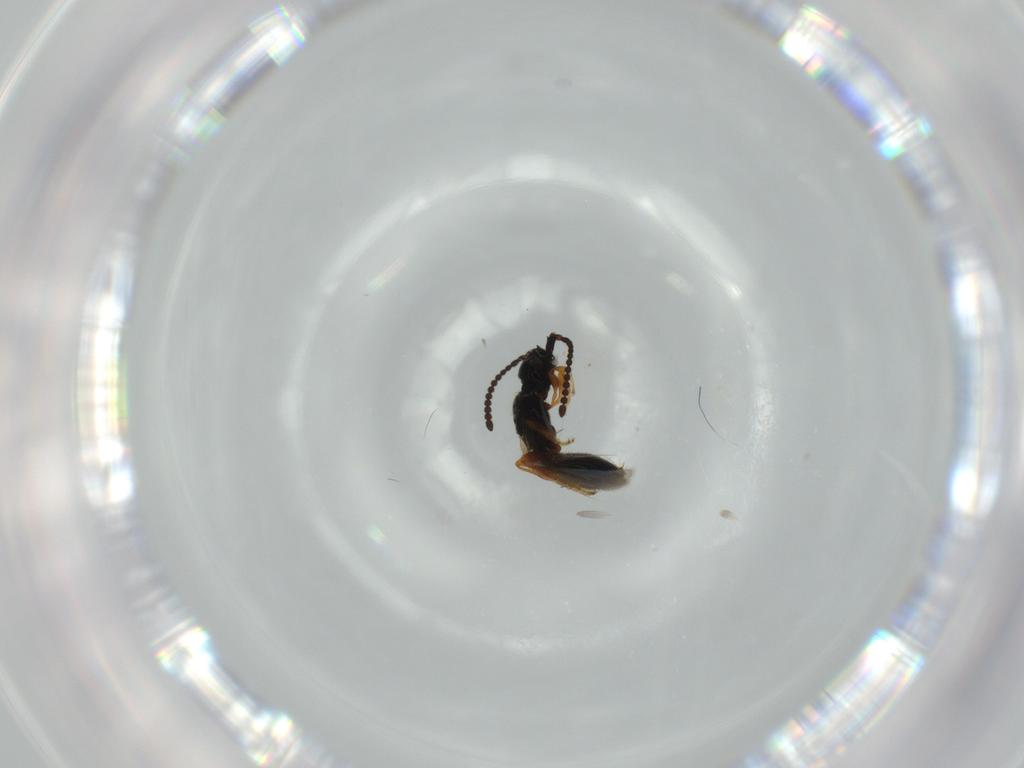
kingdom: Animalia
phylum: Arthropoda
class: Insecta
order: Hymenoptera
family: Diapriidae
